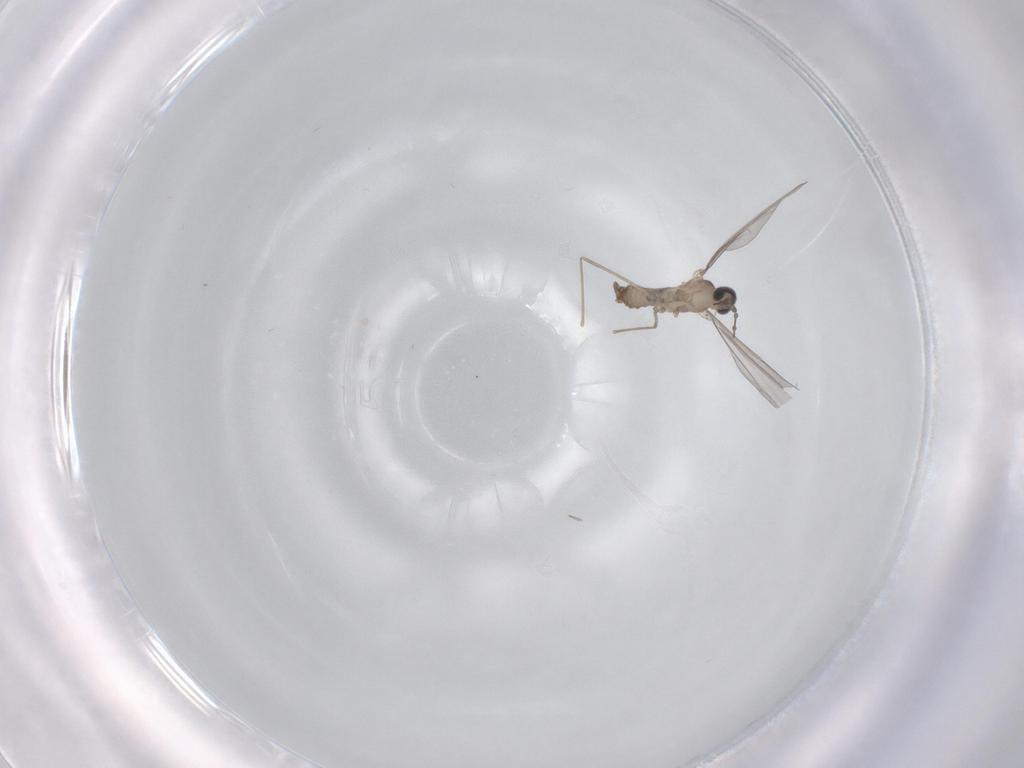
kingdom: Animalia
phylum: Arthropoda
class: Insecta
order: Diptera
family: Cecidomyiidae
